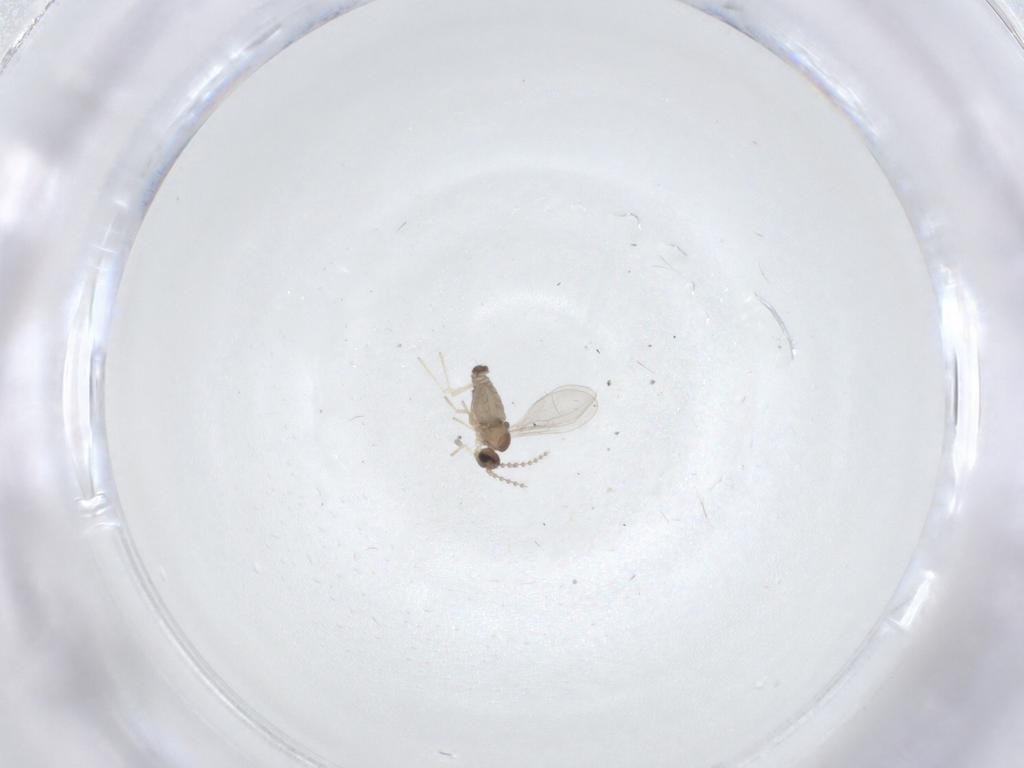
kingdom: Animalia
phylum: Arthropoda
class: Insecta
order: Diptera
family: Cecidomyiidae
